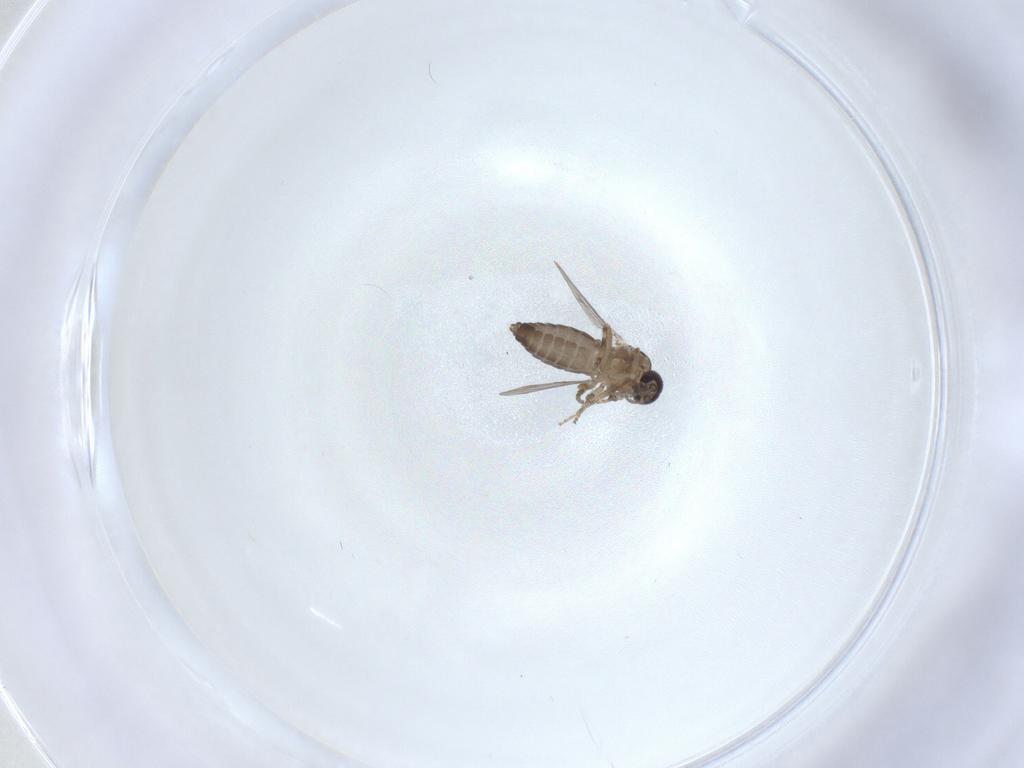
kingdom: Animalia
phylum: Arthropoda
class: Insecta
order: Diptera
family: Ceratopogonidae
